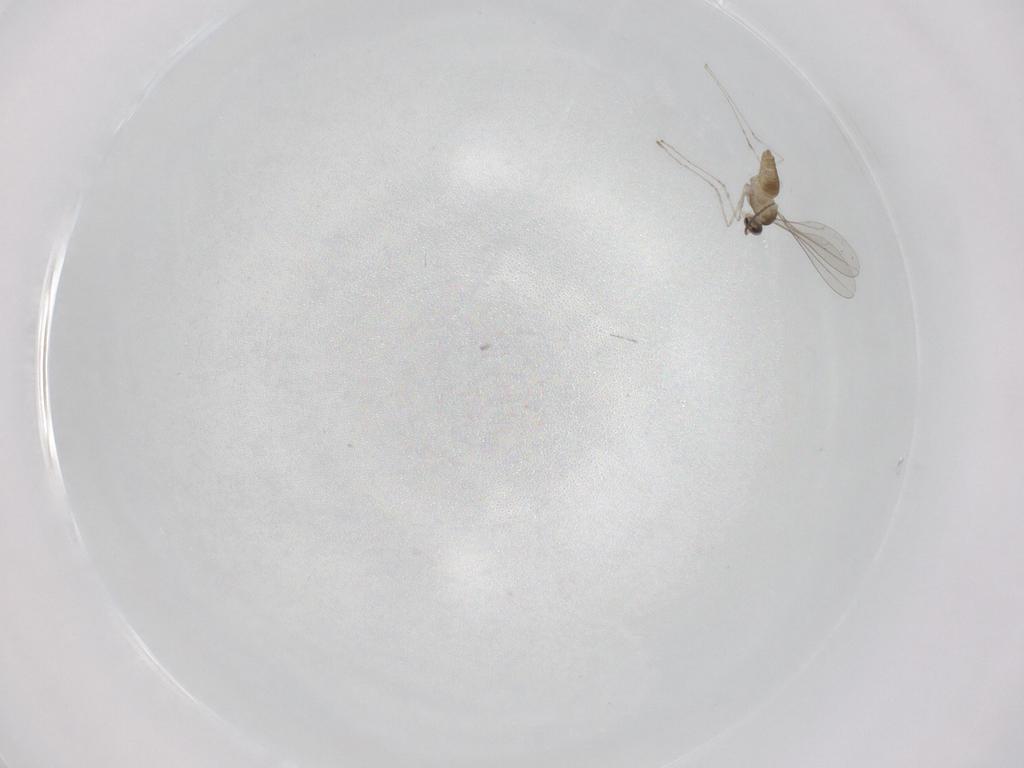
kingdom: Animalia
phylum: Arthropoda
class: Insecta
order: Diptera
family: Cecidomyiidae
